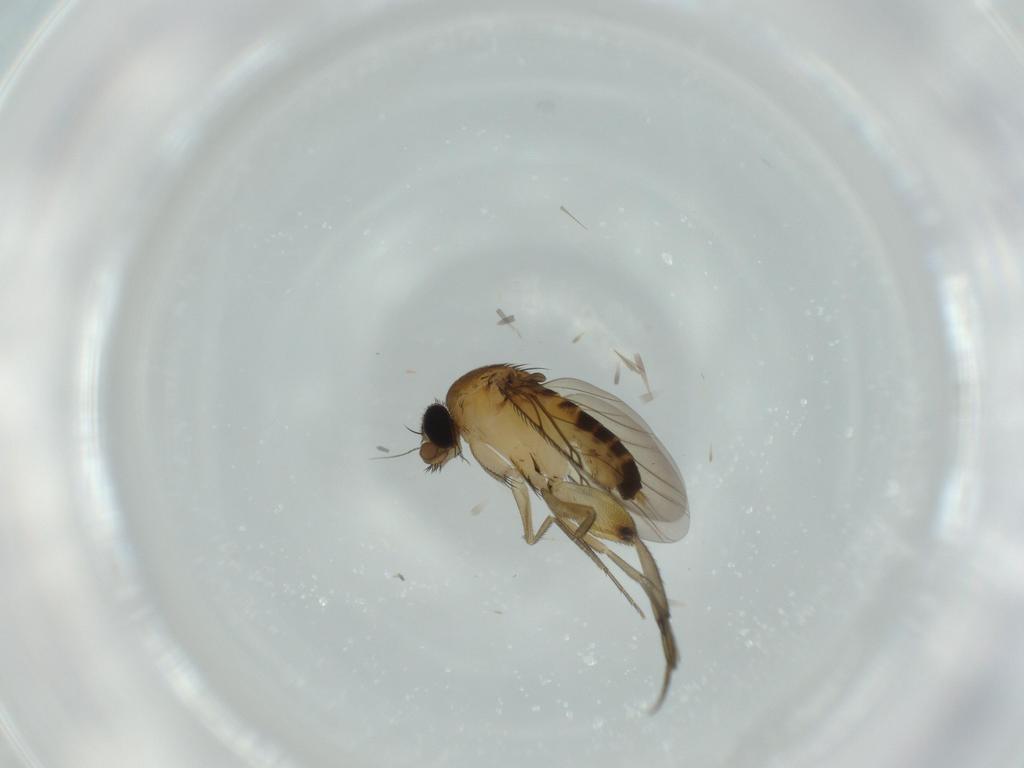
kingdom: Animalia
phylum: Arthropoda
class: Insecta
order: Diptera
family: Phoridae
